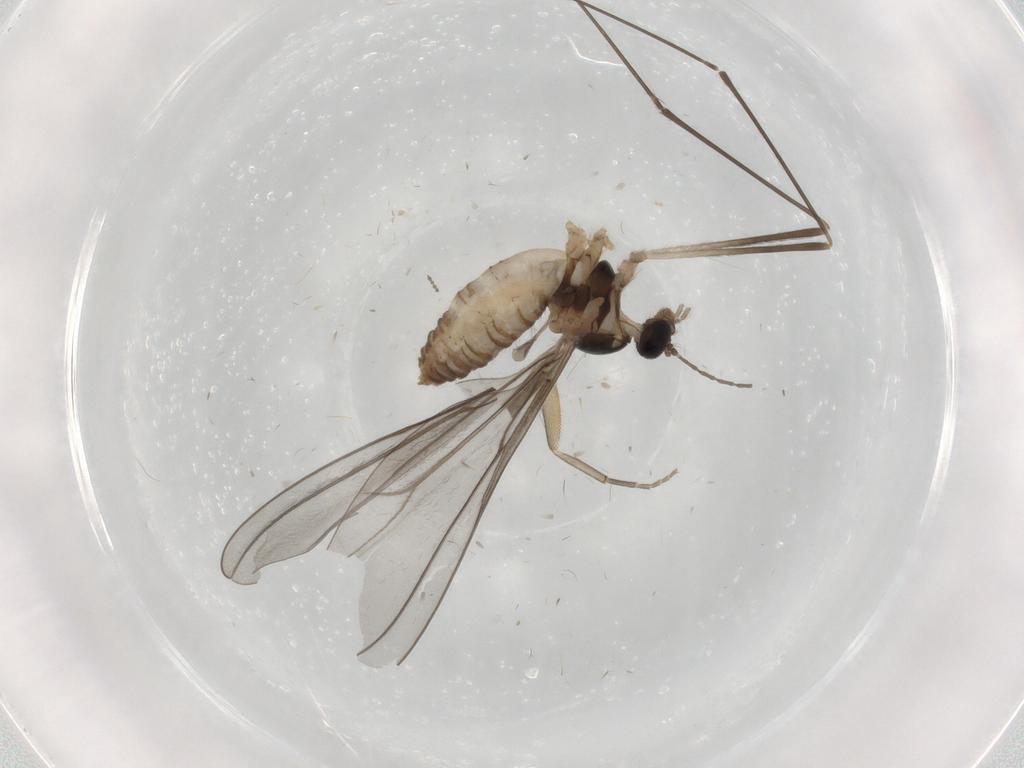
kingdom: Animalia
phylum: Arthropoda
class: Insecta
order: Diptera
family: Cecidomyiidae
